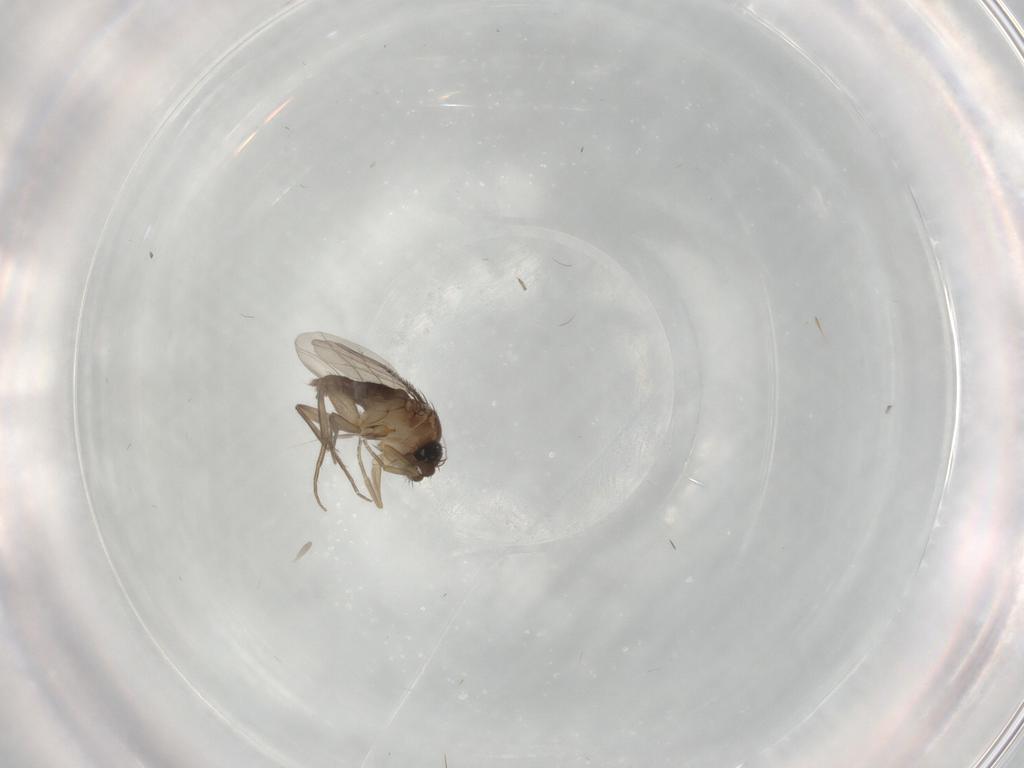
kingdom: Animalia
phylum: Arthropoda
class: Insecta
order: Diptera
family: Phoridae
